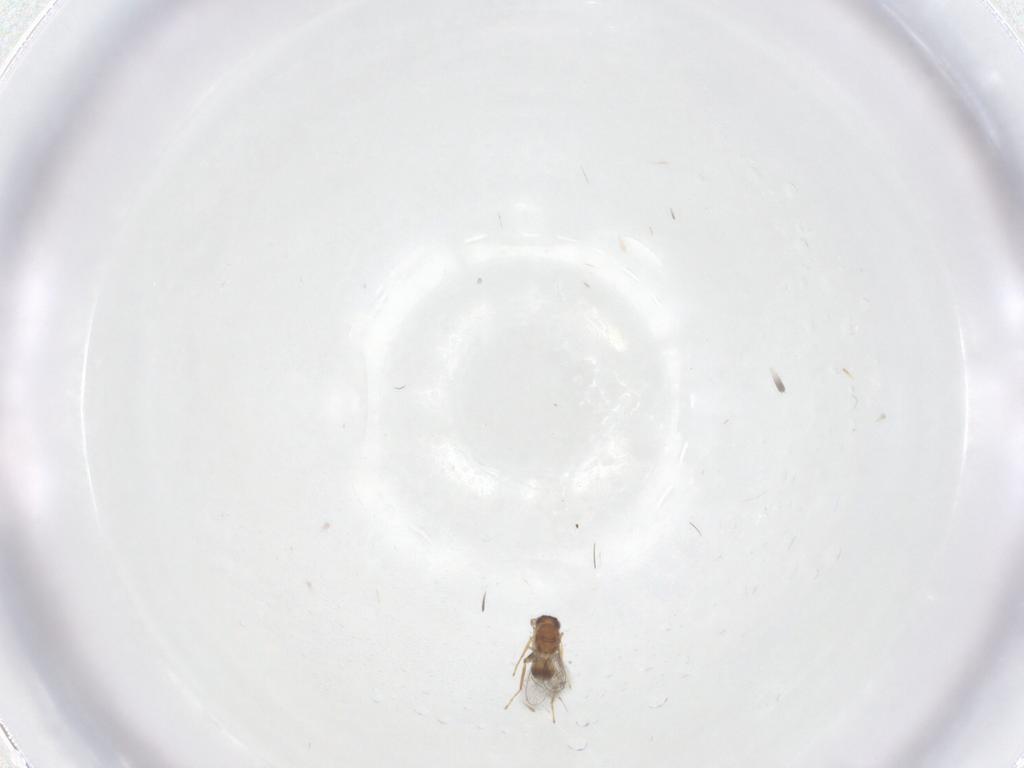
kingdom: Animalia
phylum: Arthropoda
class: Insecta
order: Hymenoptera
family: Mymaridae
